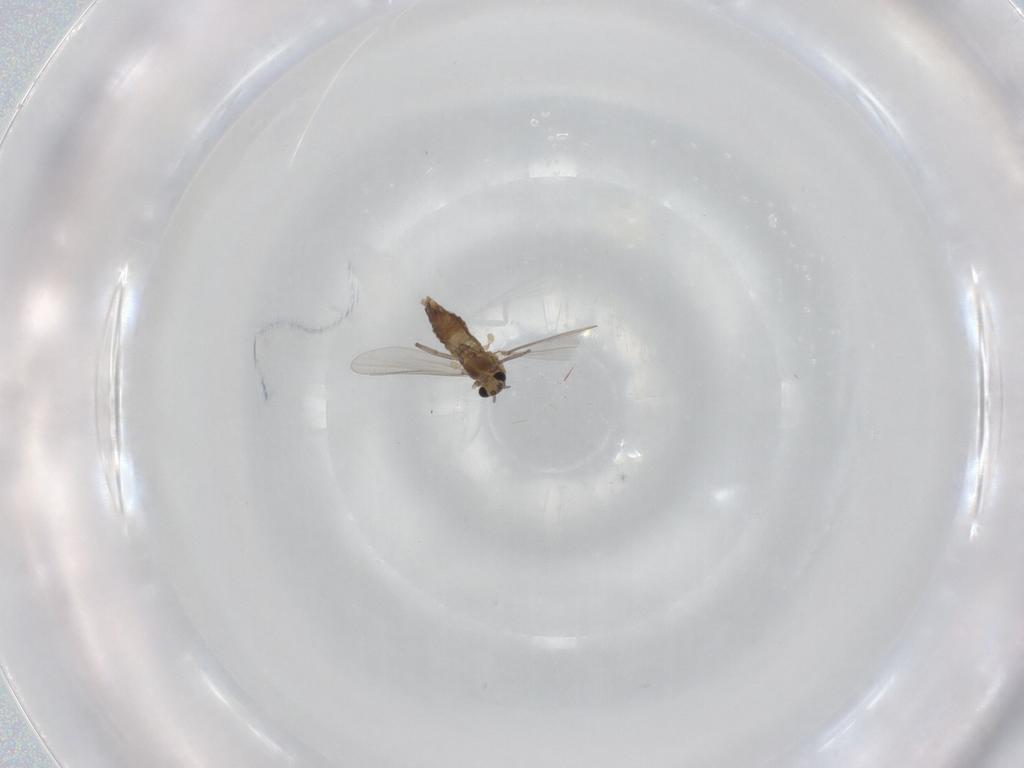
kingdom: Animalia
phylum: Arthropoda
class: Insecta
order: Diptera
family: Chironomidae
